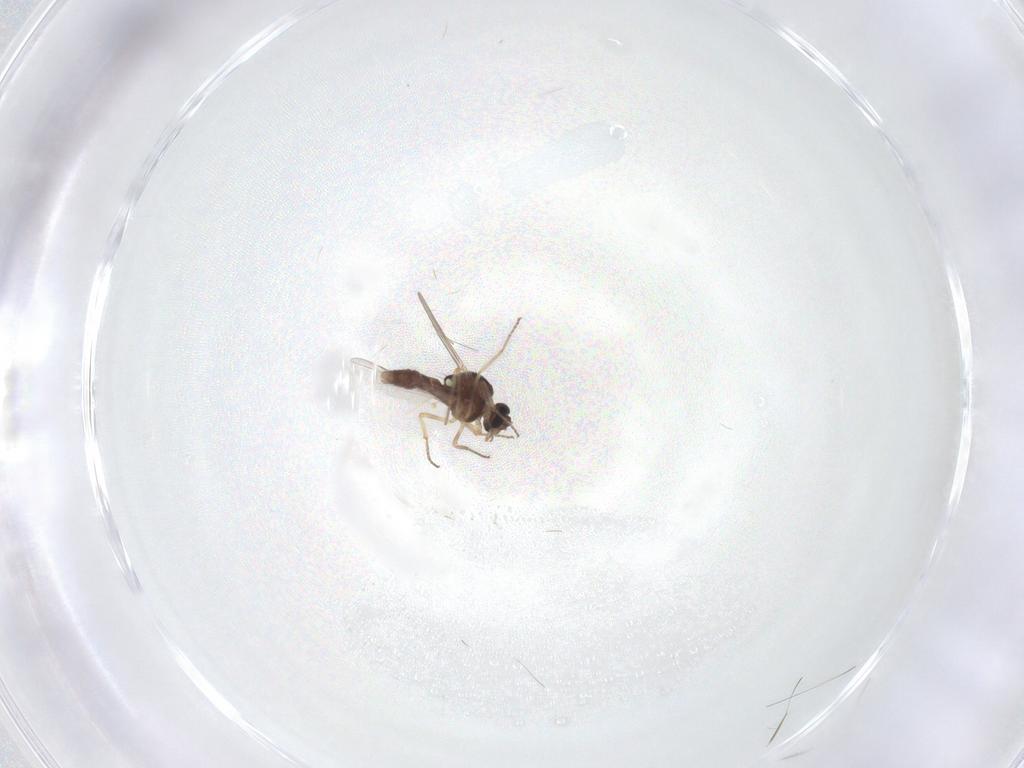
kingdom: Animalia
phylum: Arthropoda
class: Insecta
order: Diptera
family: Ceratopogonidae
